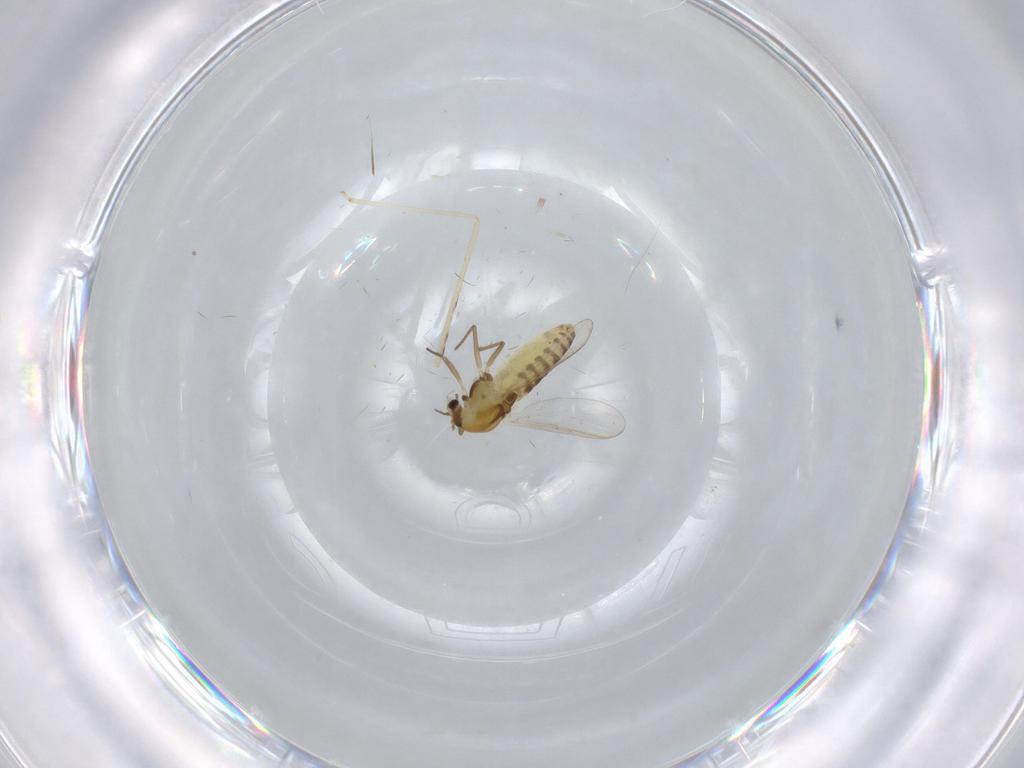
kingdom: Animalia
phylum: Arthropoda
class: Insecta
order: Diptera
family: Chironomidae
